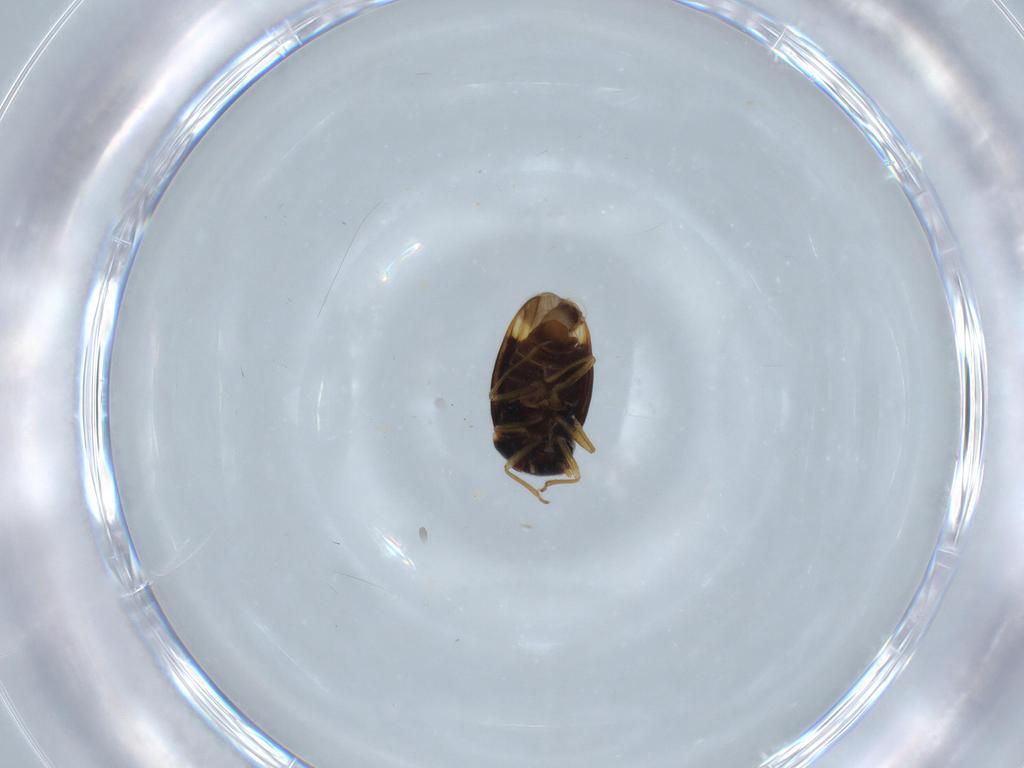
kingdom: Animalia
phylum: Arthropoda
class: Insecta
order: Hemiptera
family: Schizopteridae
